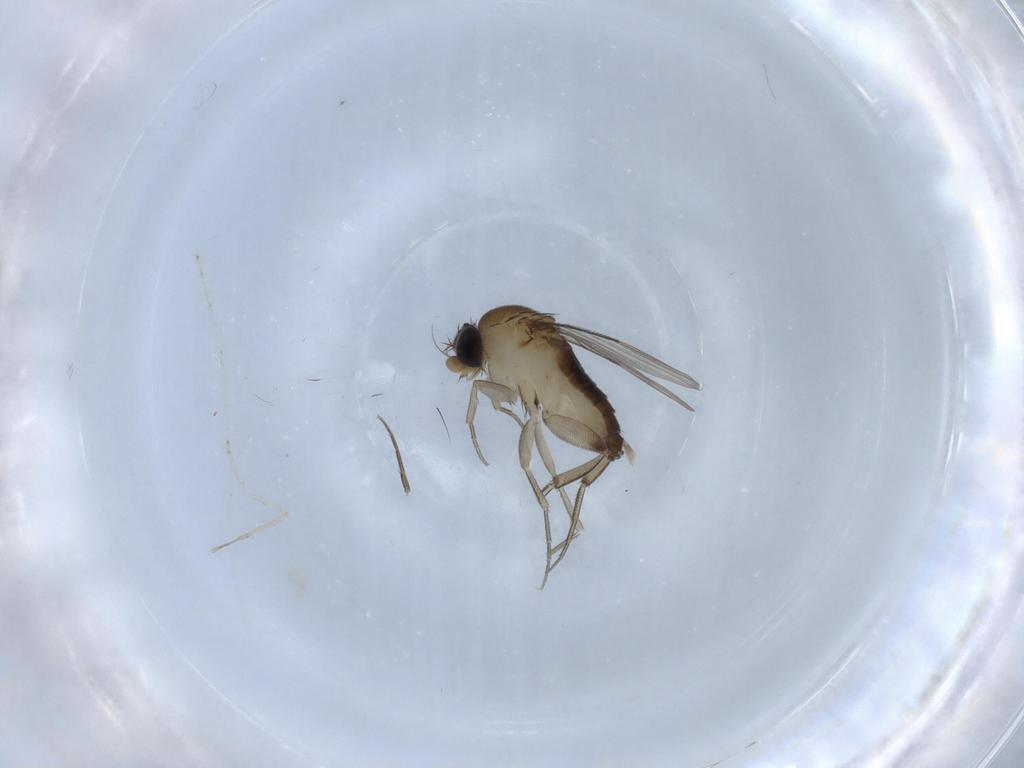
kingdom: Animalia
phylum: Arthropoda
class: Insecta
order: Diptera
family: Phoridae
